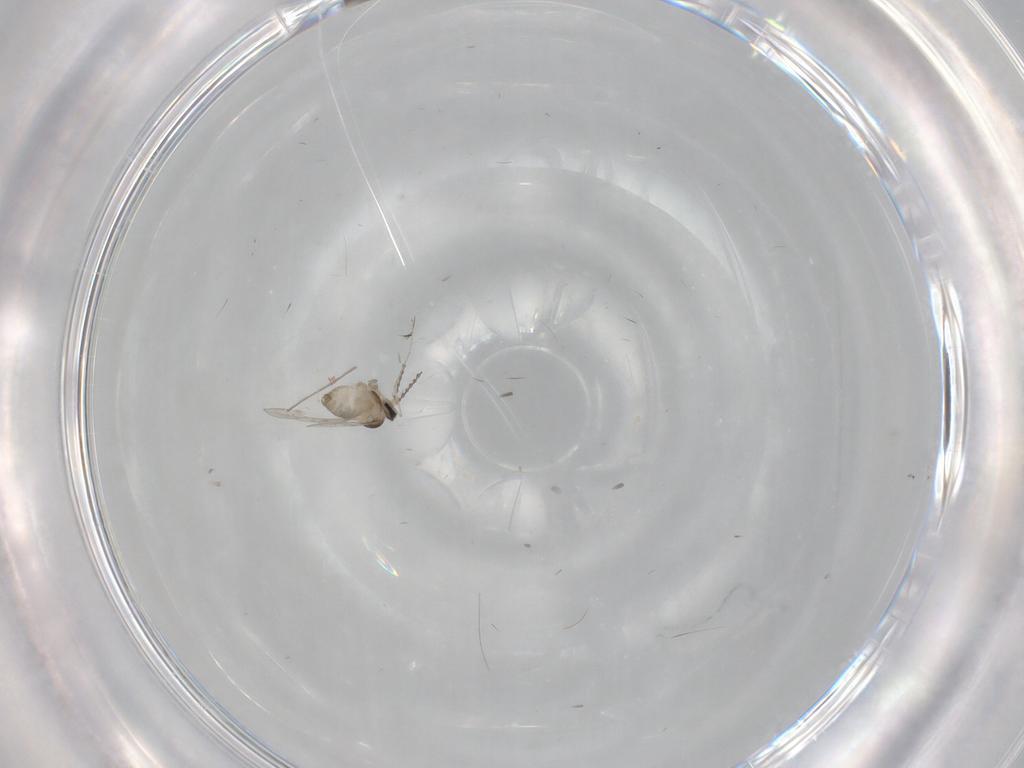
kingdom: Animalia
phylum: Arthropoda
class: Insecta
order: Diptera
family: Cecidomyiidae
